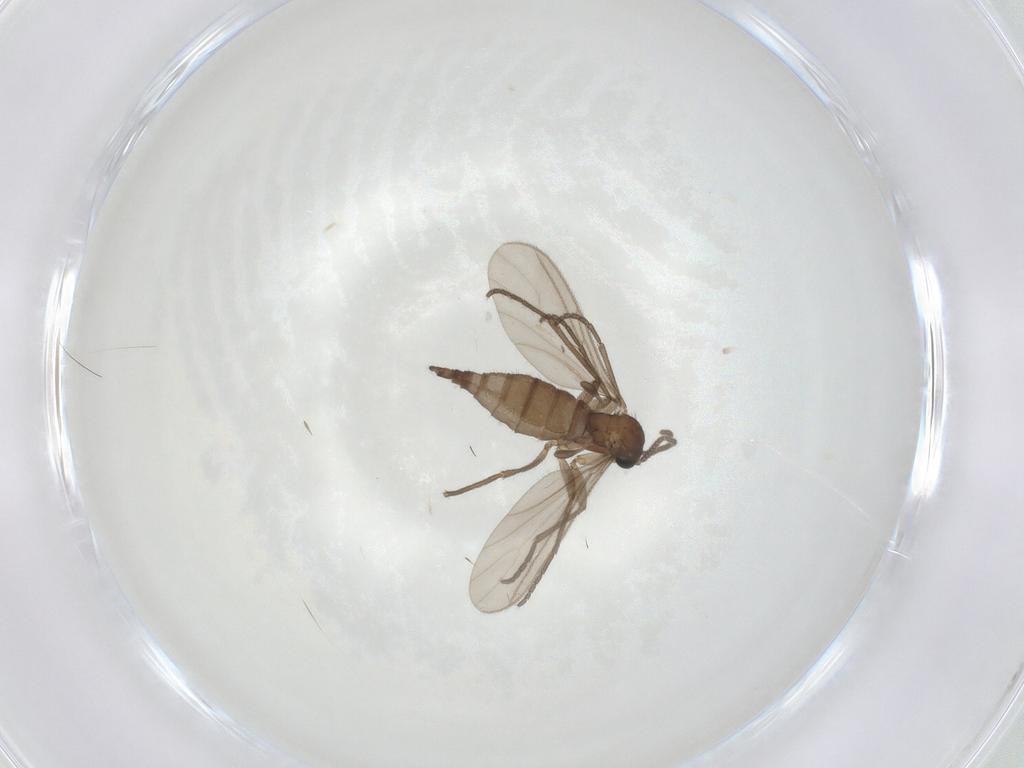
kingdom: Animalia
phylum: Arthropoda
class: Insecta
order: Diptera
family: Sciaridae
